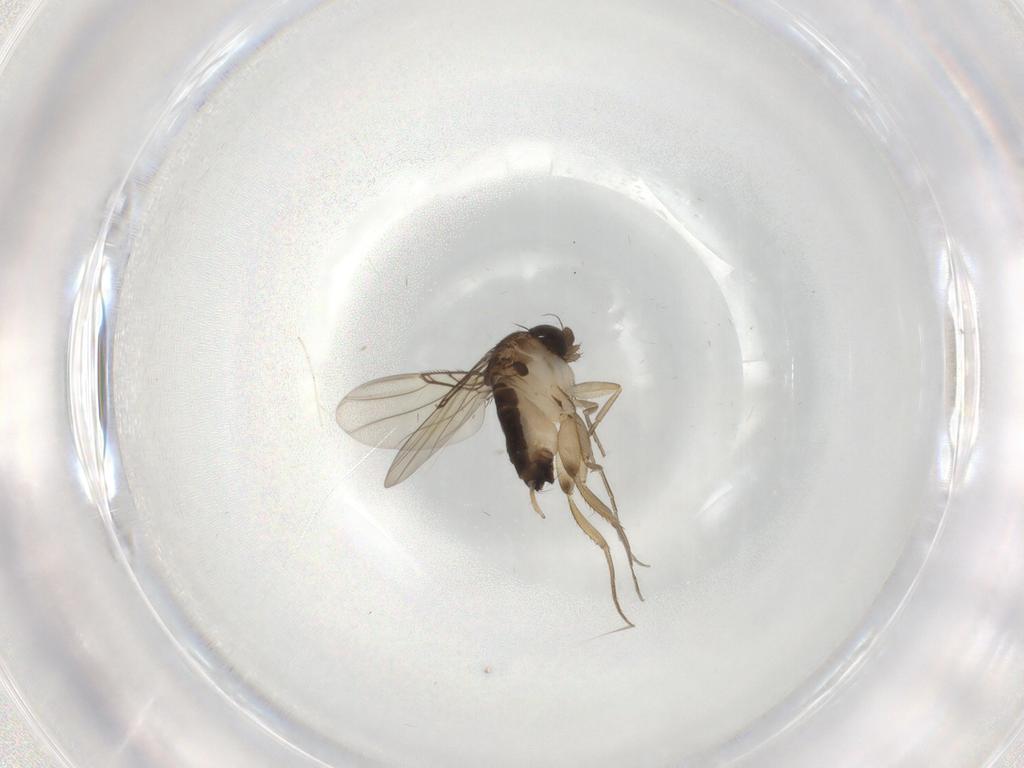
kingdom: Animalia
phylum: Arthropoda
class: Insecta
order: Diptera
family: Phoridae
